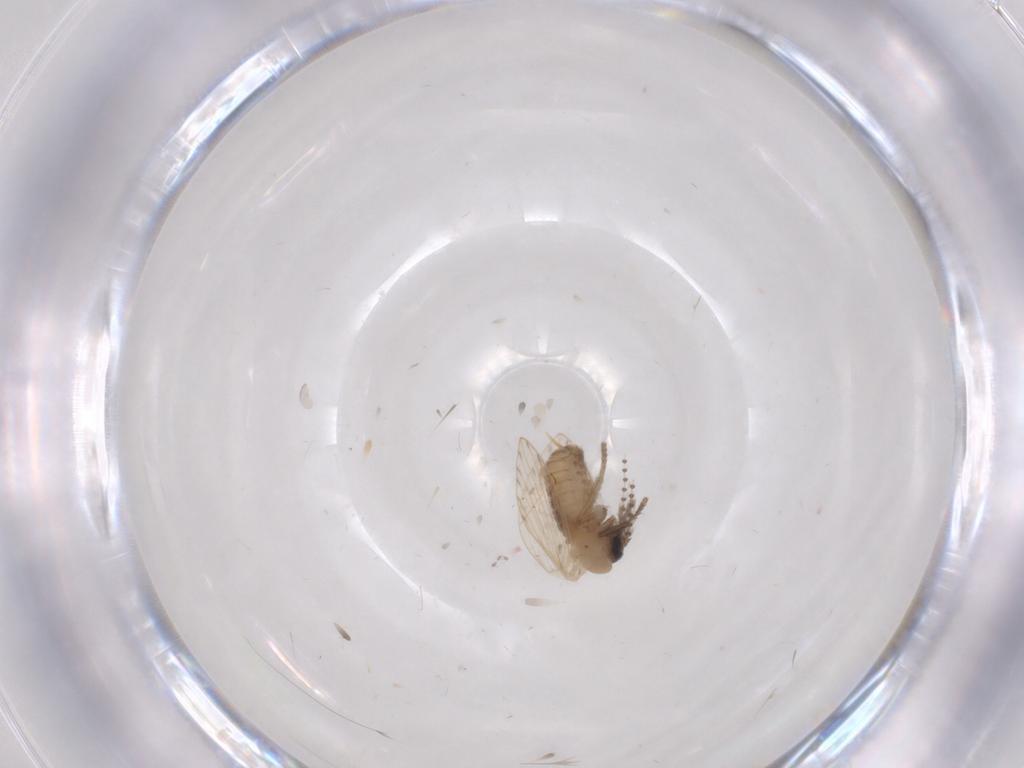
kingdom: Animalia
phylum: Arthropoda
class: Insecta
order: Diptera
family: Psychodidae
